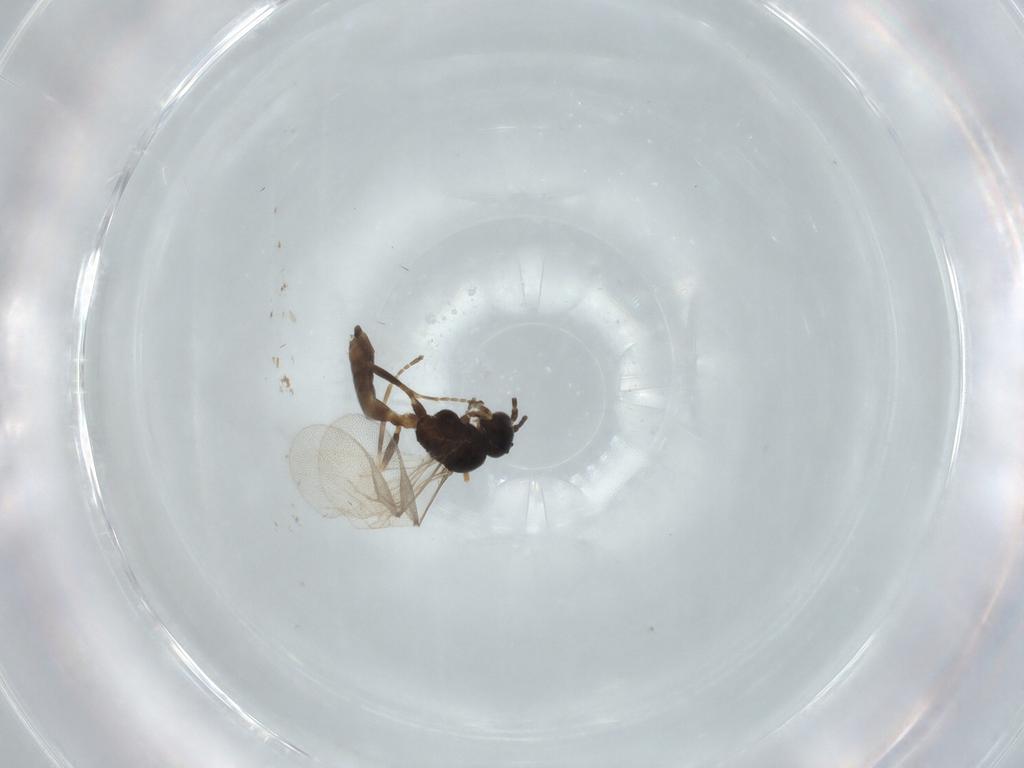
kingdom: Animalia
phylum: Arthropoda
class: Insecta
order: Hymenoptera
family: Braconidae
